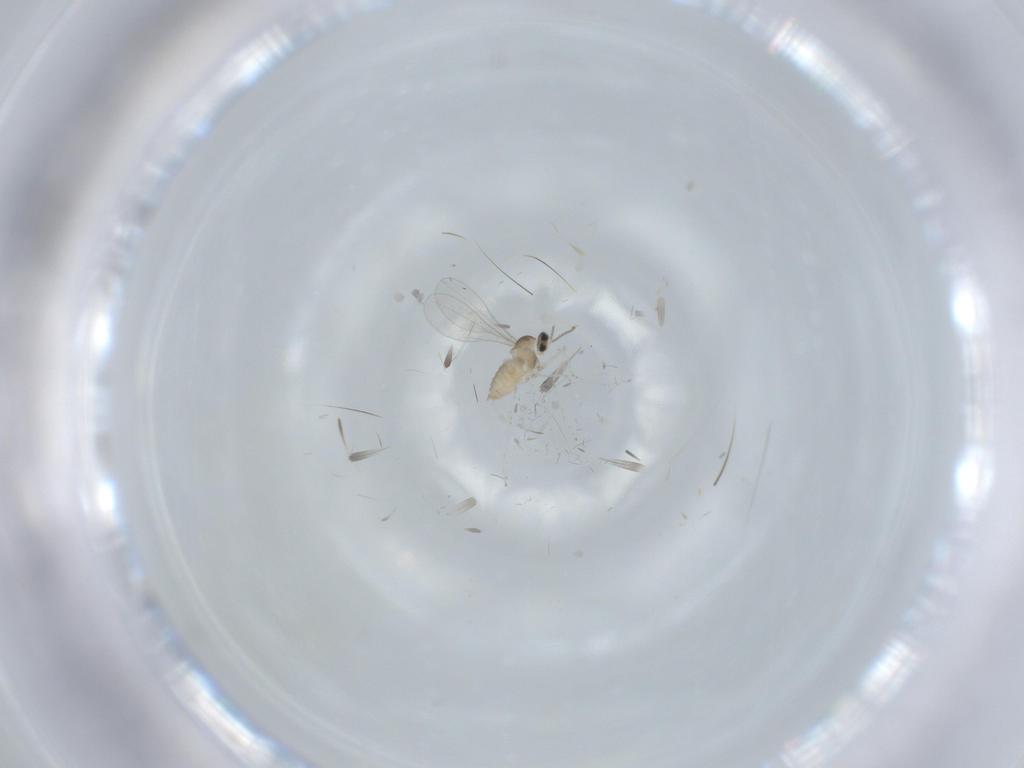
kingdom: Animalia
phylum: Arthropoda
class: Insecta
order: Diptera
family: Cecidomyiidae
